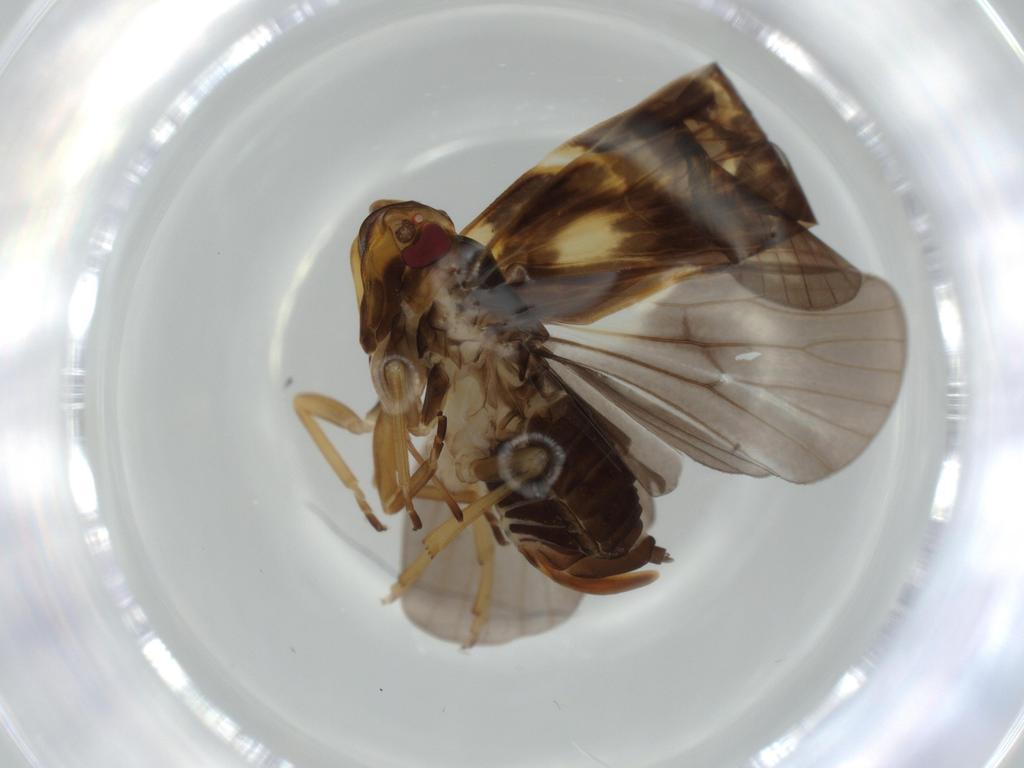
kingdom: Animalia
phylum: Arthropoda
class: Insecta
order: Hemiptera
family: Cixiidae
